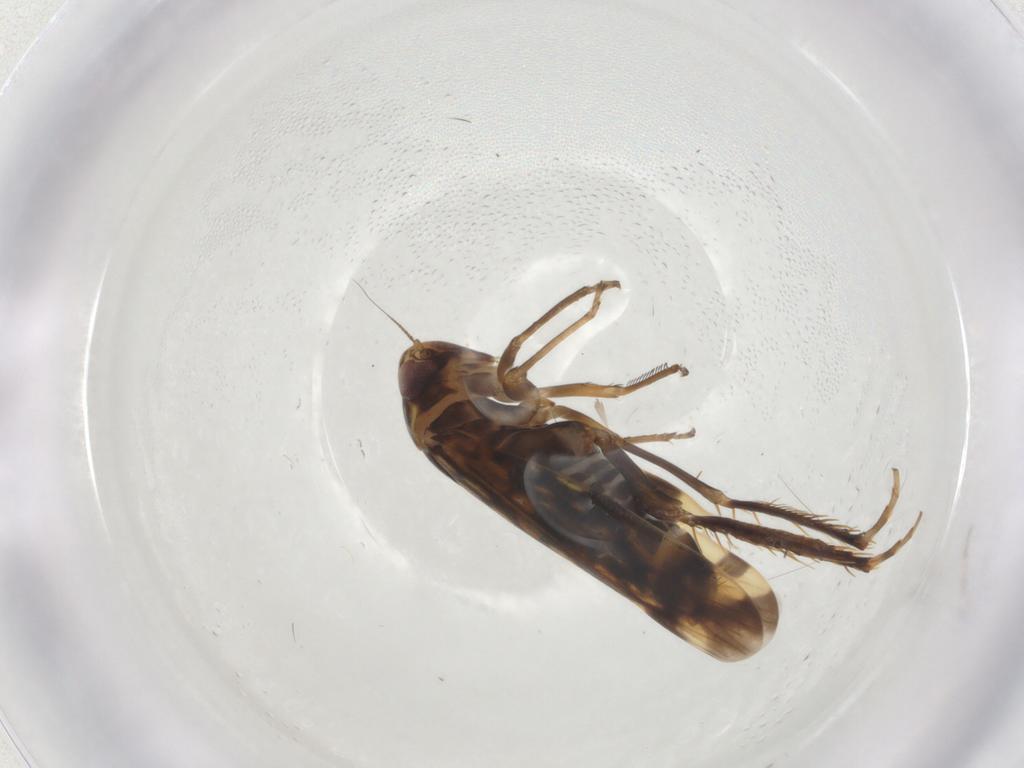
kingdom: Animalia
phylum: Arthropoda
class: Insecta
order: Hemiptera
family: Cicadellidae
